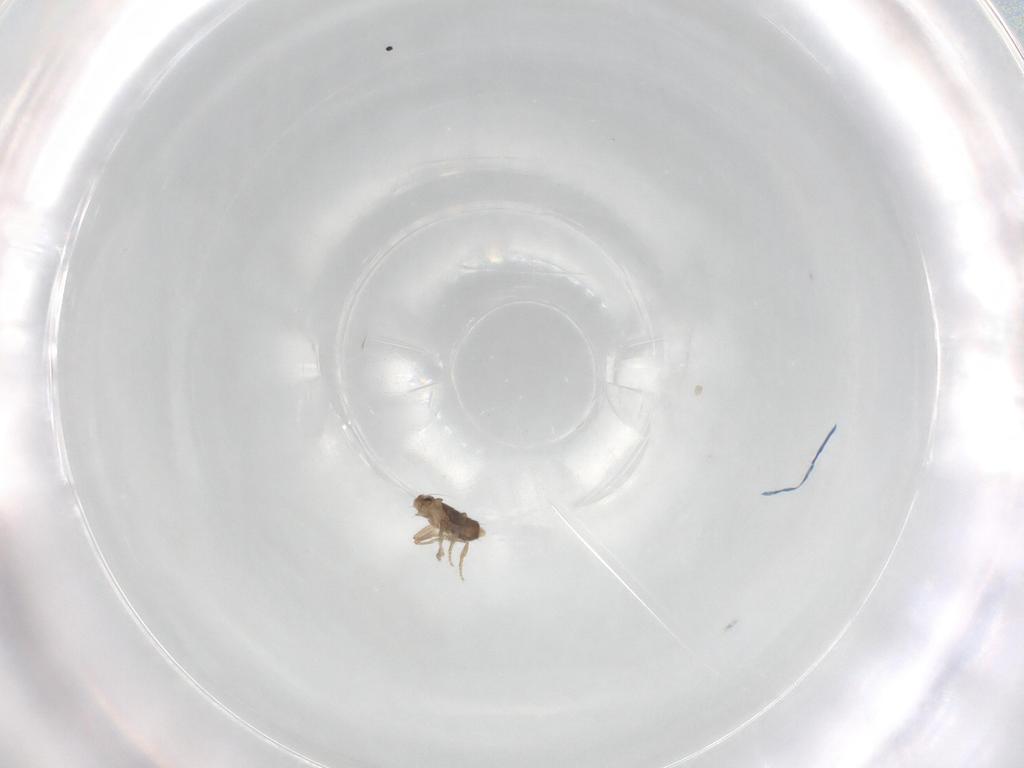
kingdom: Animalia
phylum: Arthropoda
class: Insecta
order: Diptera
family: Phoridae
